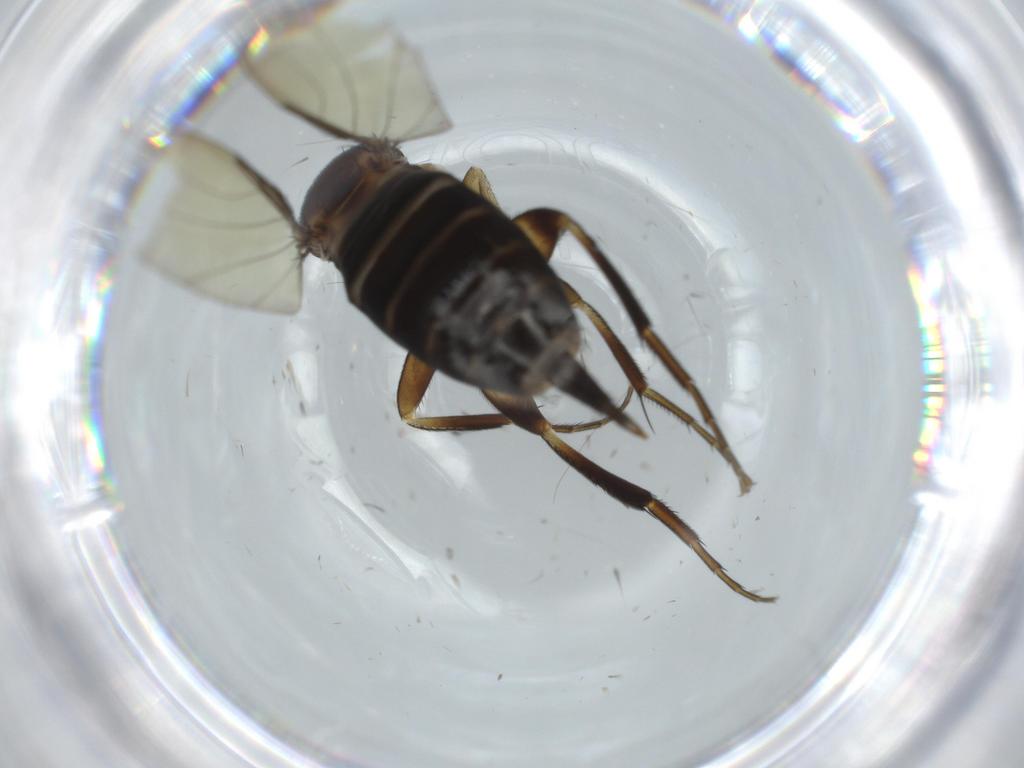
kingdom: Animalia
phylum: Arthropoda
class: Insecta
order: Diptera
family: Phoridae
